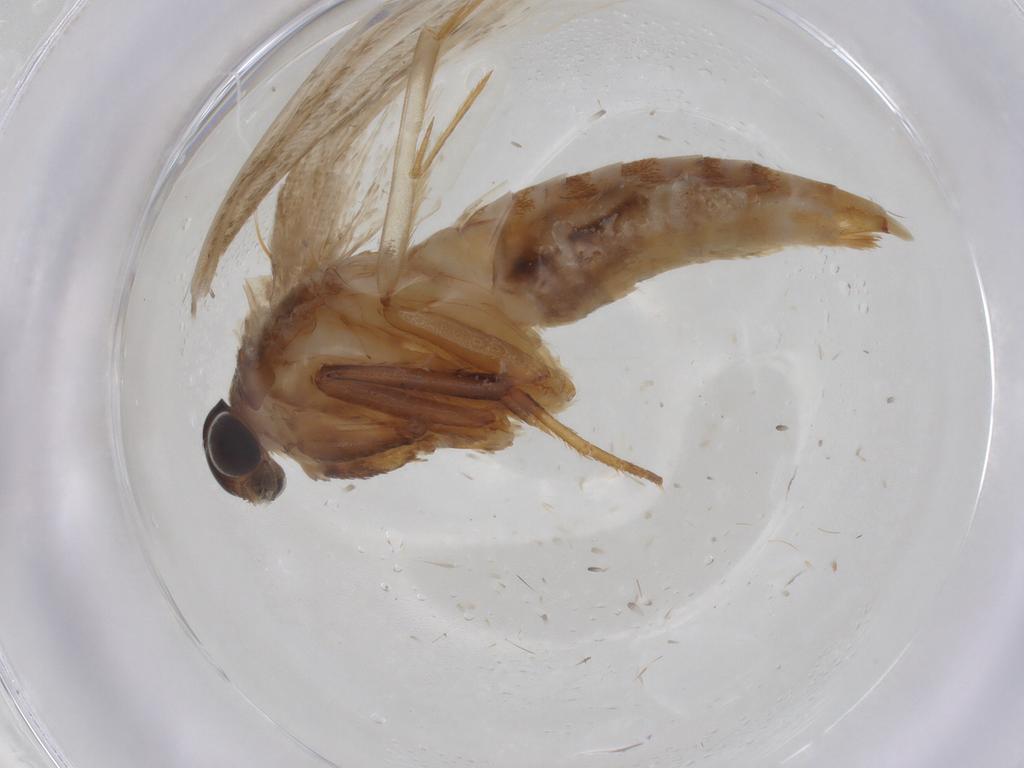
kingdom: Animalia
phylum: Arthropoda
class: Insecta
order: Lepidoptera
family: Oecophoridae
